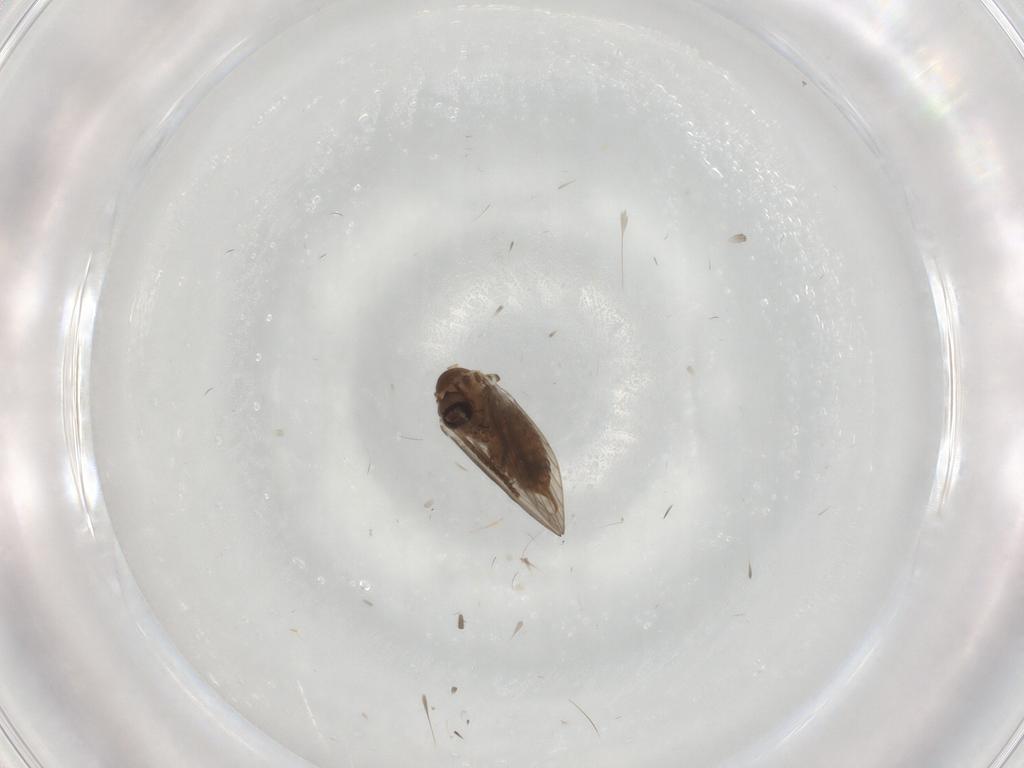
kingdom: Animalia
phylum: Arthropoda
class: Insecta
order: Diptera
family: Psychodidae
